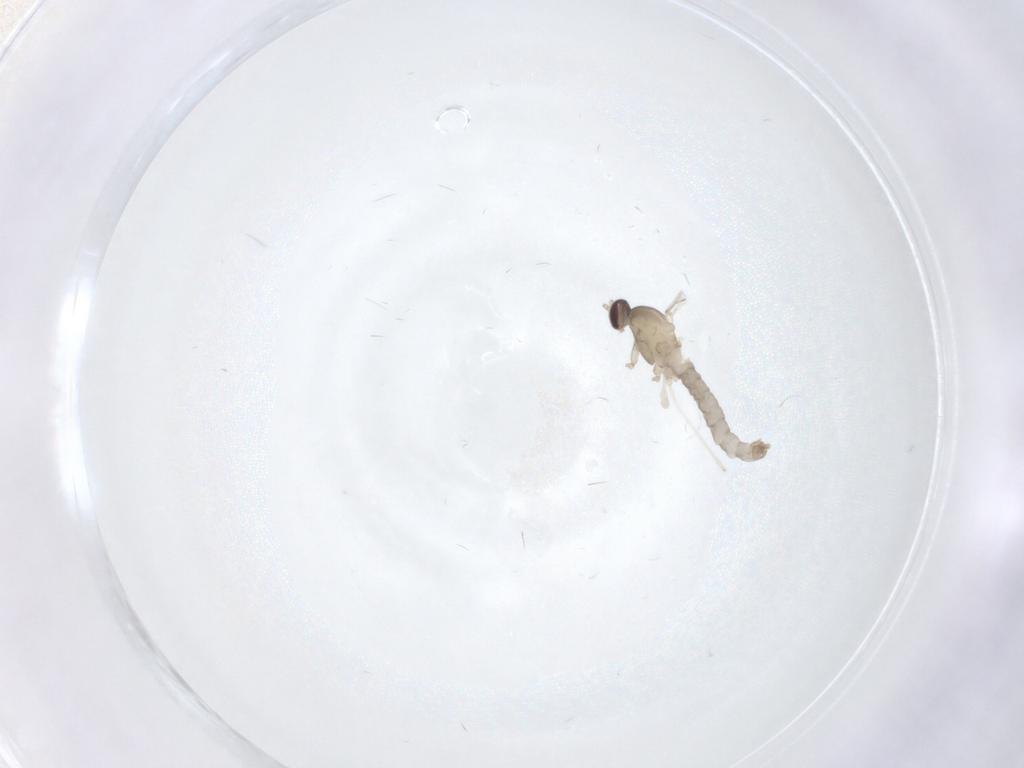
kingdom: Animalia
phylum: Arthropoda
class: Insecta
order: Diptera
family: Cecidomyiidae
